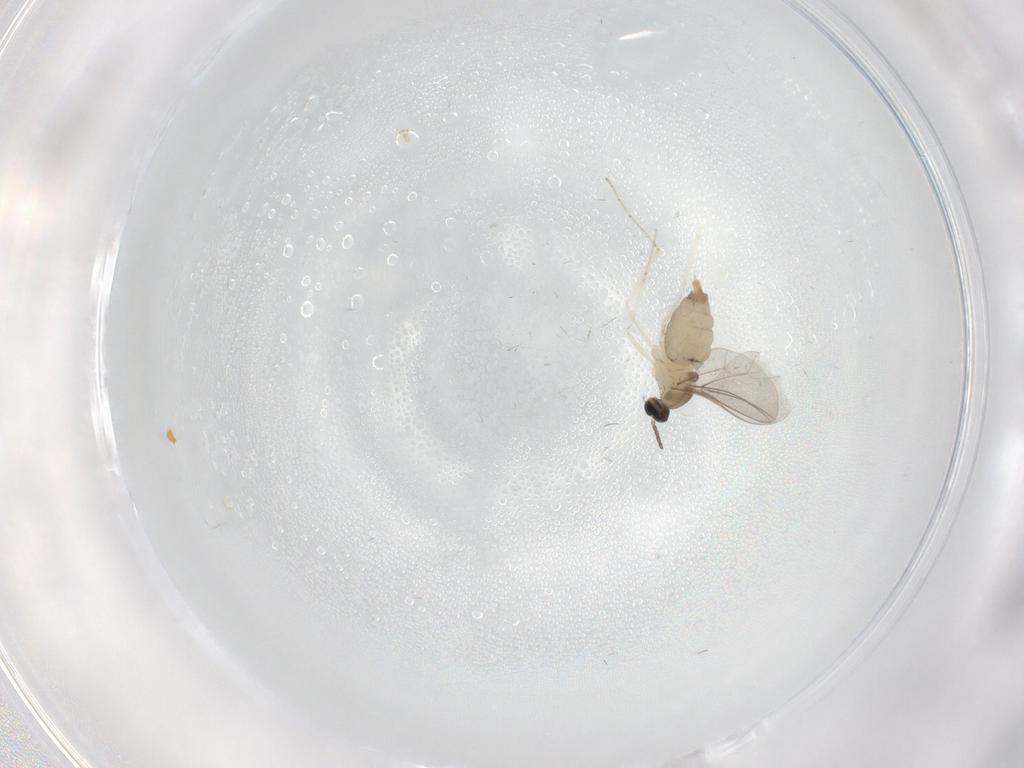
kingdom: Animalia
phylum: Arthropoda
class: Insecta
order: Diptera
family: Cecidomyiidae
